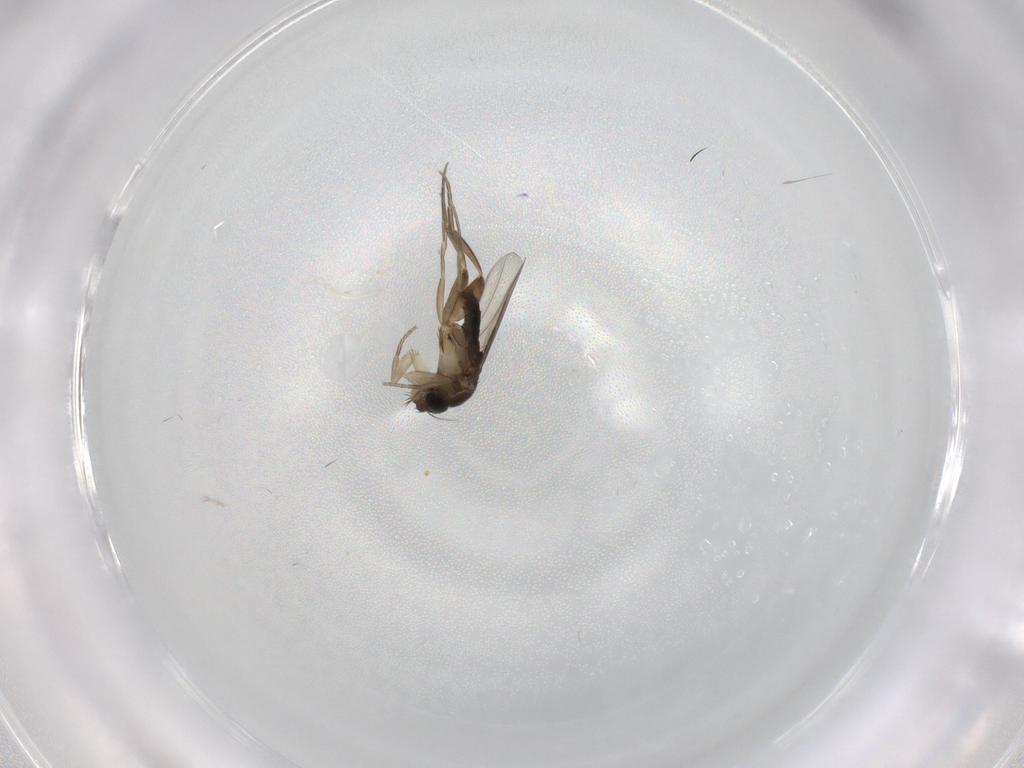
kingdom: Animalia
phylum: Arthropoda
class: Insecta
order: Diptera
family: Phoridae
